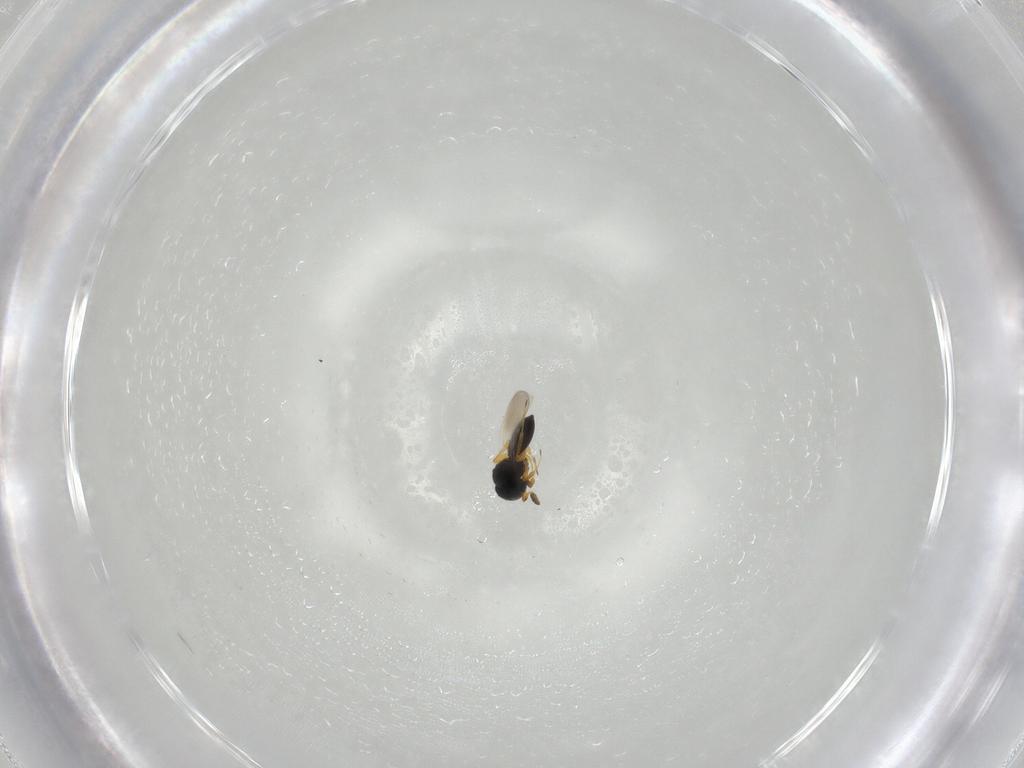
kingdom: Animalia
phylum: Arthropoda
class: Insecta
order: Hymenoptera
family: Platygastridae
